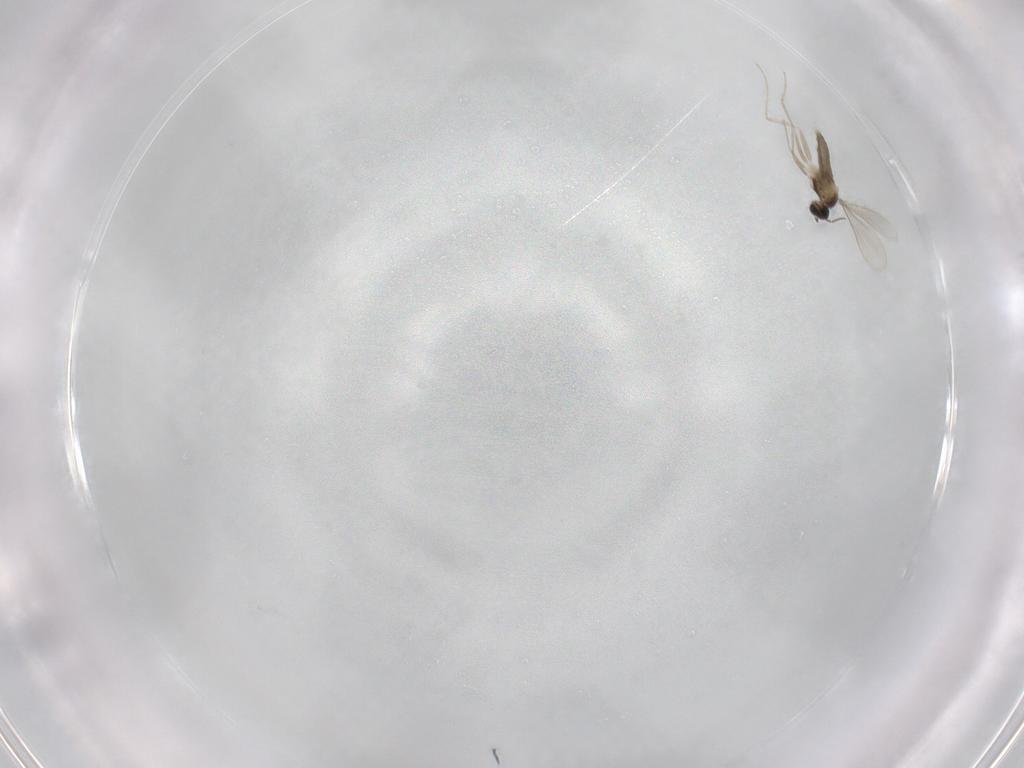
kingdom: Animalia
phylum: Arthropoda
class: Insecta
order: Diptera
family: Chironomidae
